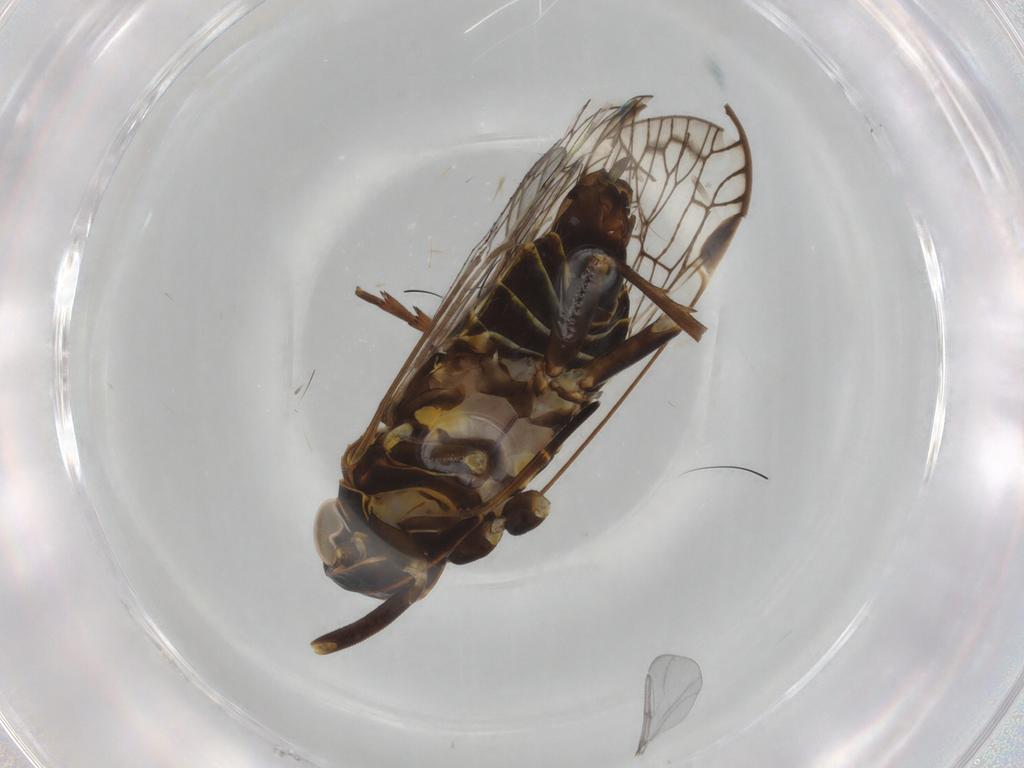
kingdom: Animalia
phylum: Arthropoda
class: Insecta
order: Hemiptera
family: Cixiidae
